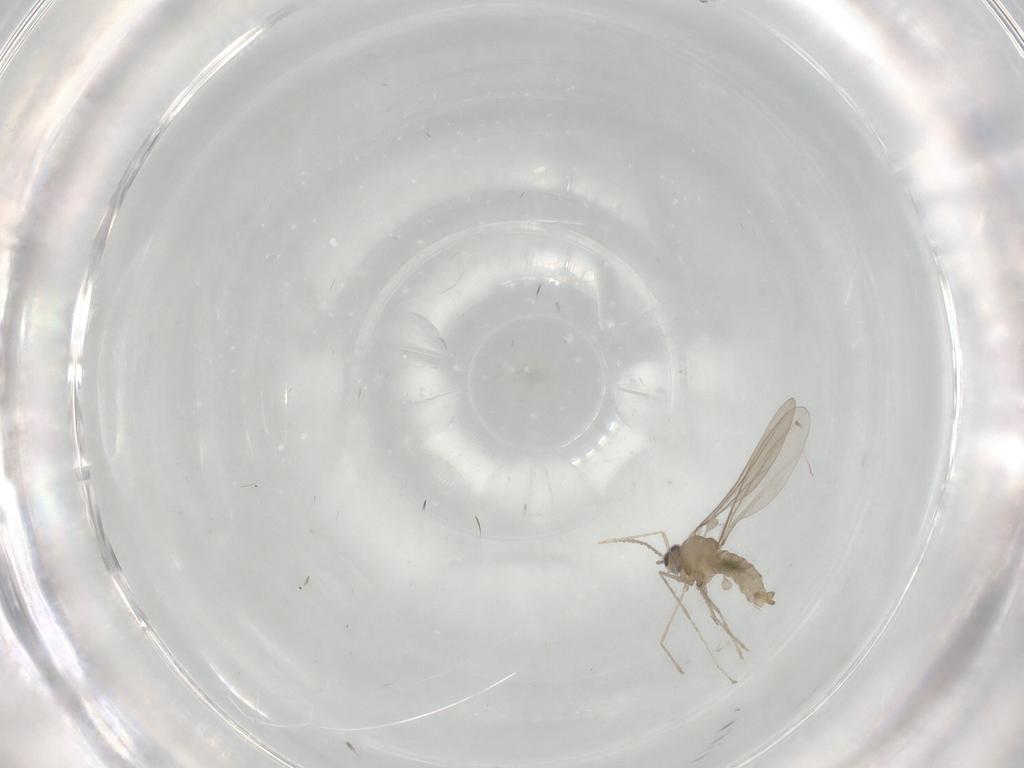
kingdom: Animalia
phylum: Arthropoda
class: Insecta
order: Diptera
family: Cecidomyiidae
